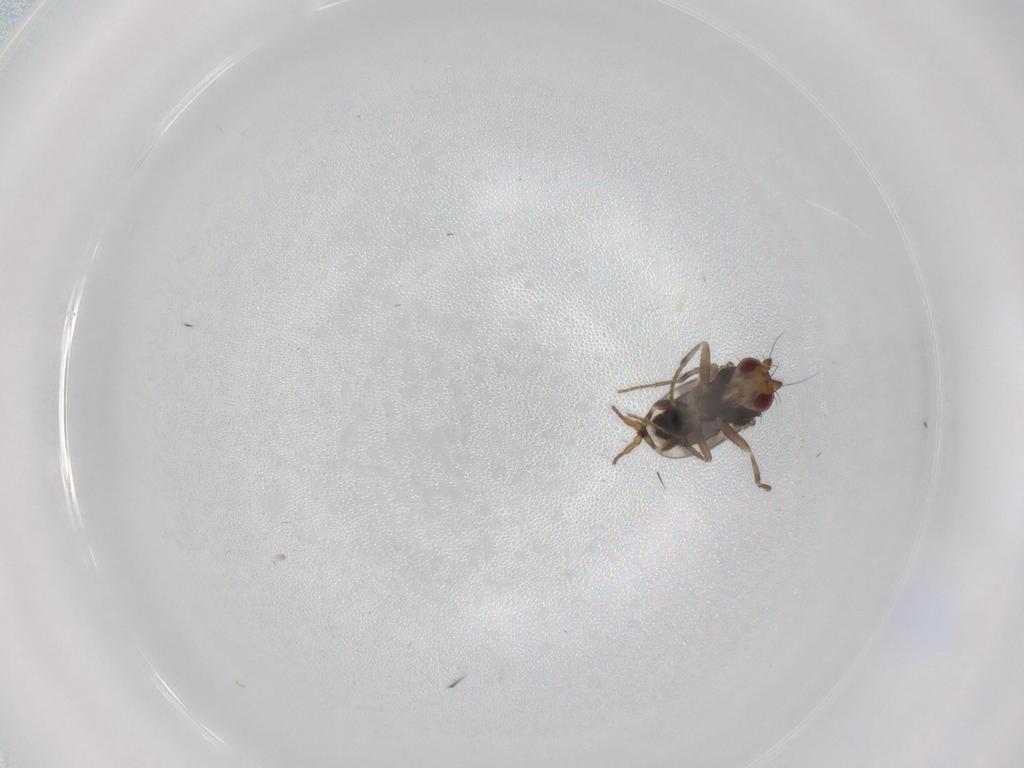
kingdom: Animalia
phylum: Arthropoda
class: Insecta
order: Diptera
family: Sphaeroceridae
